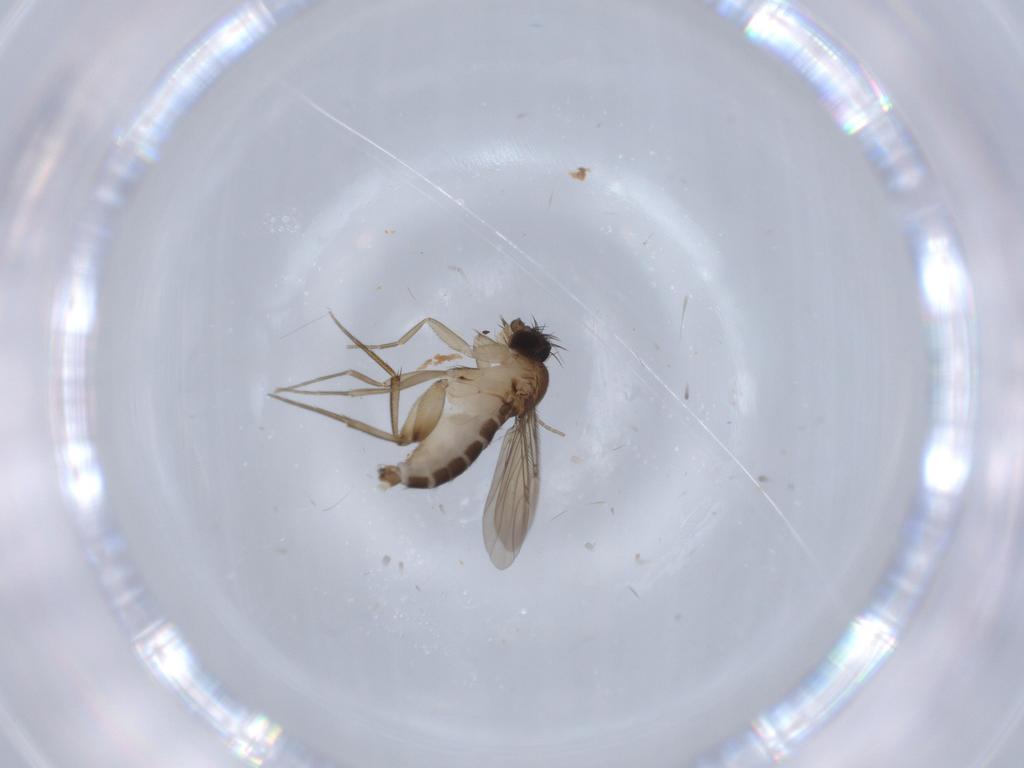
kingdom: Animalia
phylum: Arthropoda
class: Insecta
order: Diptera
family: Phoridae
